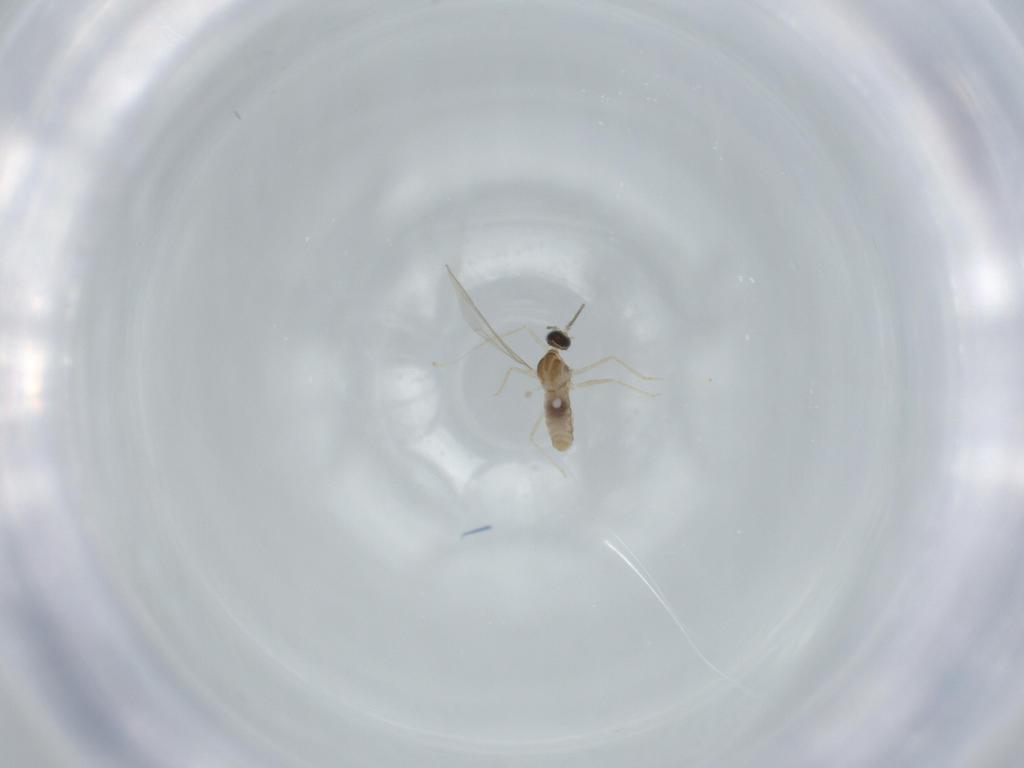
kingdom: Animalia
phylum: Arthropoda
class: Insecta
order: Diptera
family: Cecidomyiidae
